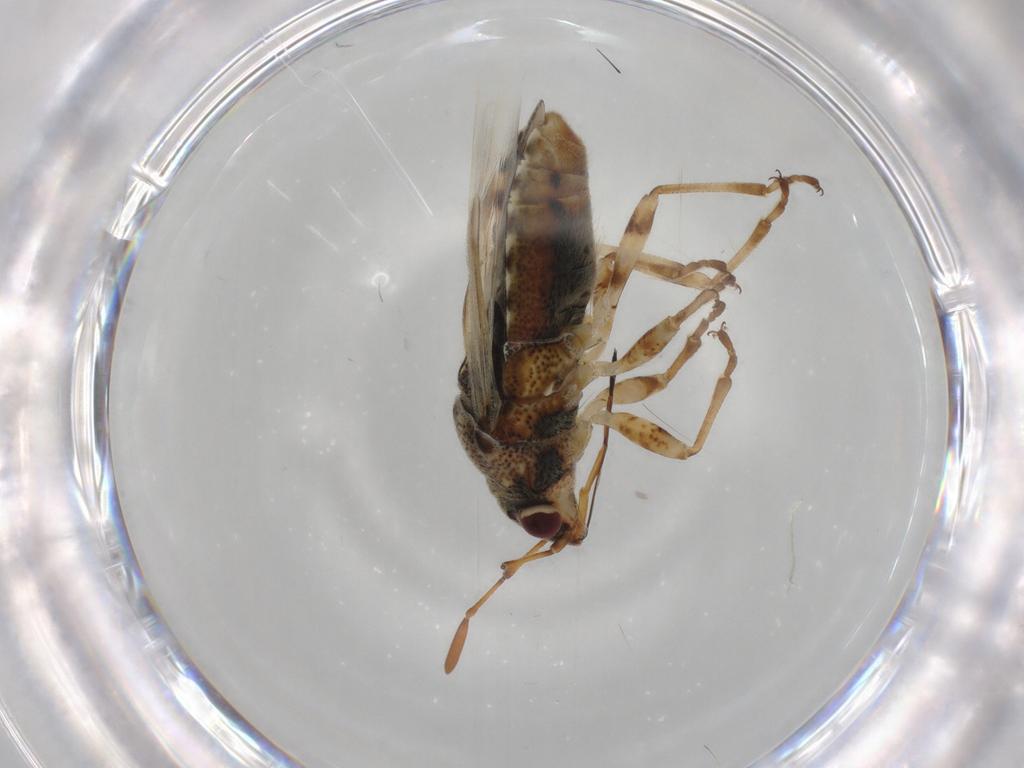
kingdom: Animalia
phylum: Arthropoda
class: Insecta
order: Hemiptera
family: Lygaeidae
